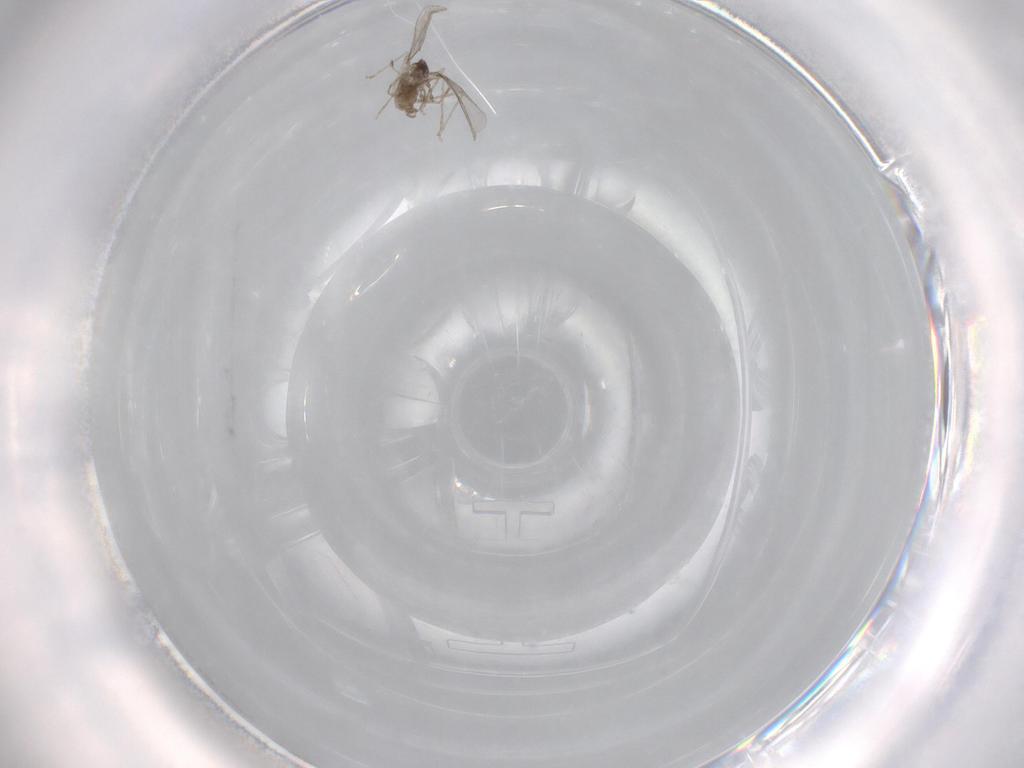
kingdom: Animalia
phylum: Arthropoda
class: Insecta
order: Diptera
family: Cecidomyiidae
